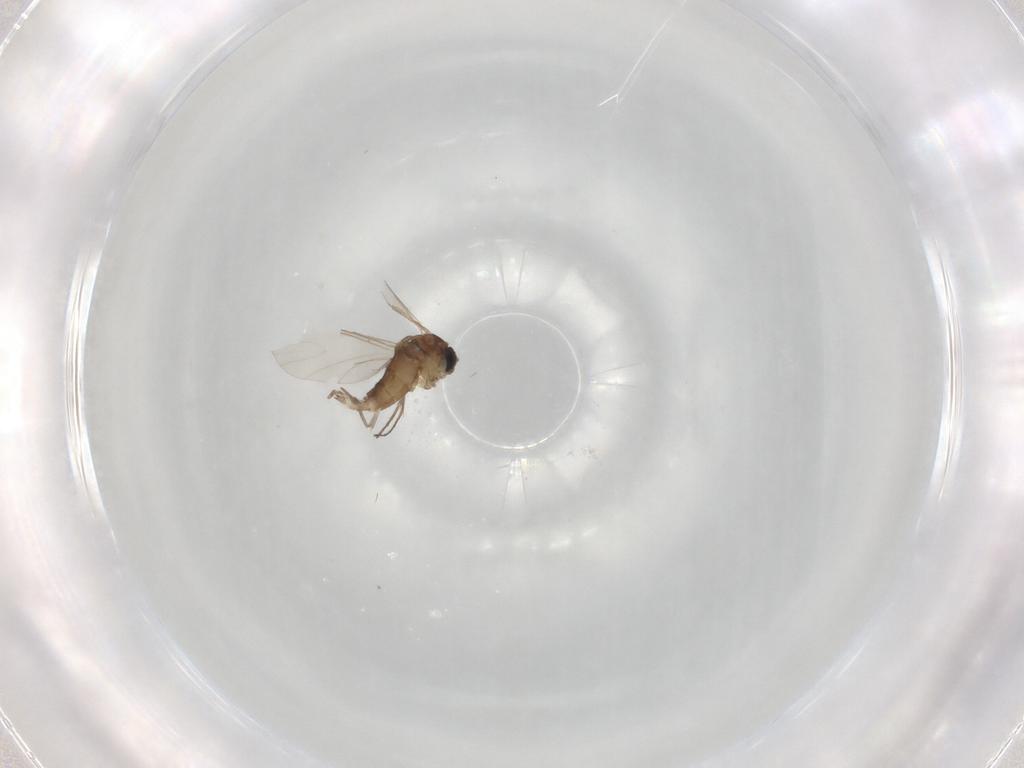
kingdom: Animalia
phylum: Arthropoda
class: Insecta
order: Diptera
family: Sciaridae
